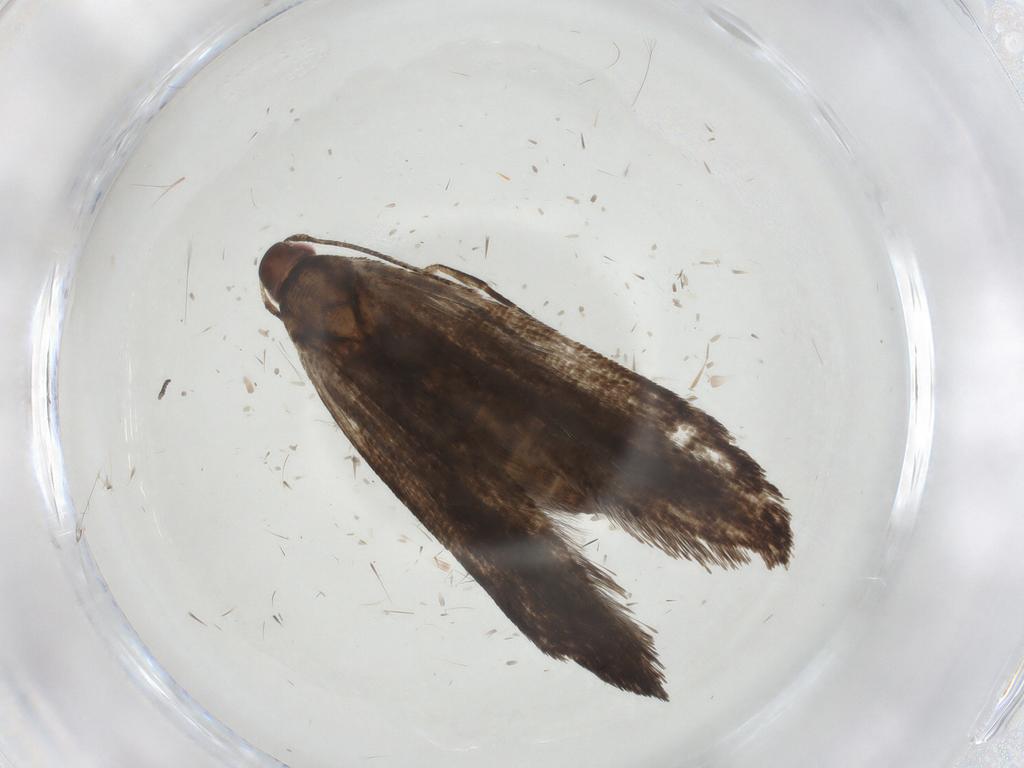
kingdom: Animalia
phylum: Arthropoda
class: Insecta
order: Lepidoptera
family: Gelechiidae
